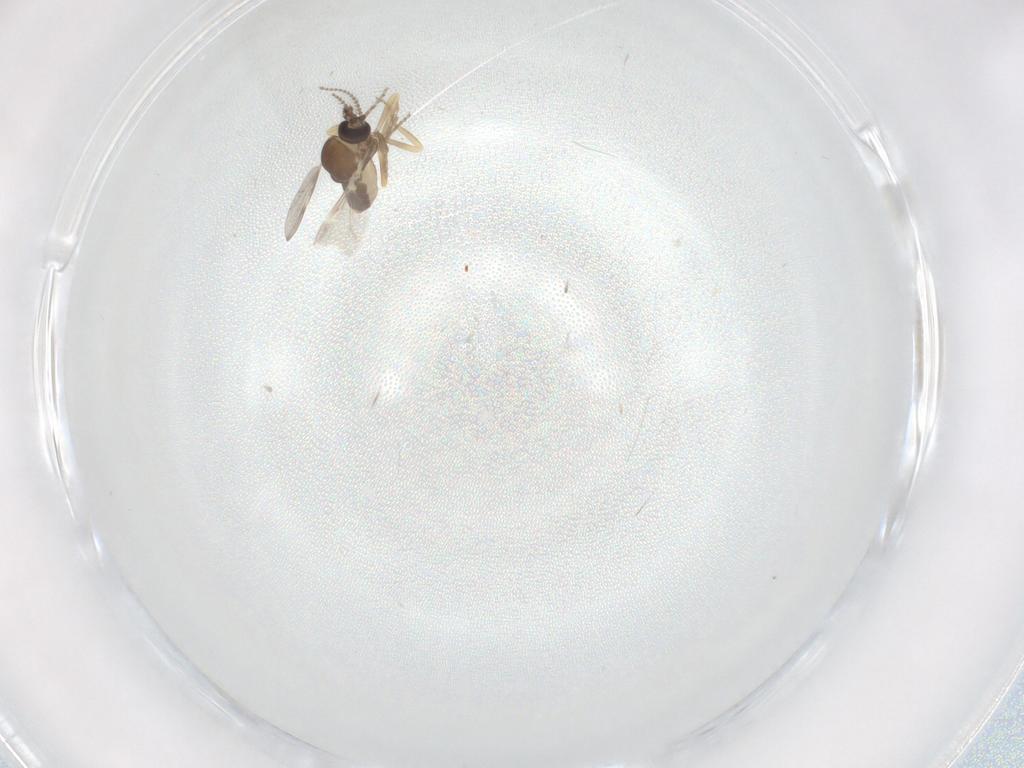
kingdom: Animalia
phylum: Arthropoda
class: Insecta
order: Diptera
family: Ceratopogonidae
